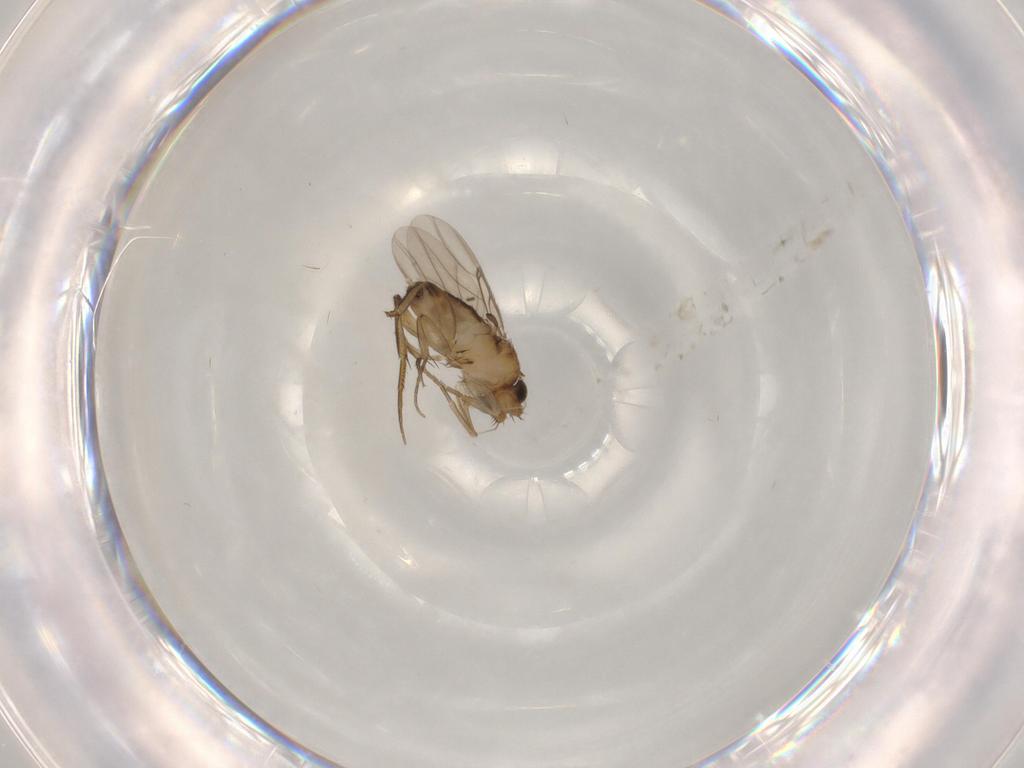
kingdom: Animalia
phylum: Arthropoda
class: Insecta
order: Diptera
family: Phoridae
